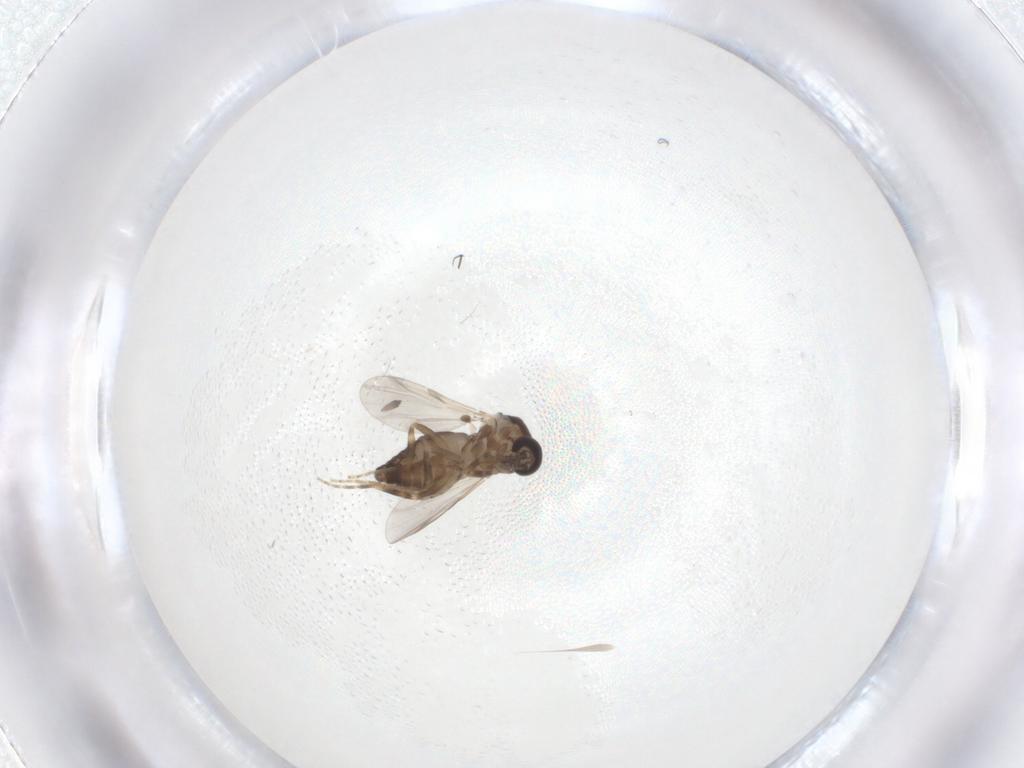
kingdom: Animalia
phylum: Arthropoda
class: Insecta
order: Diptera
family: Ceratopogonidae
